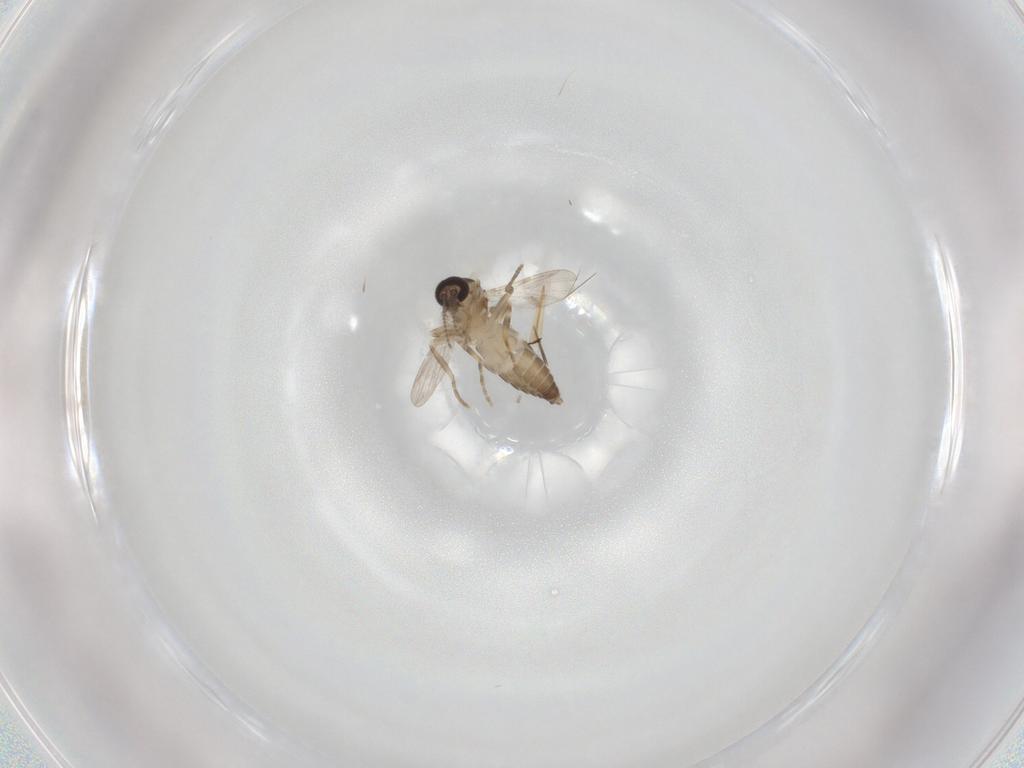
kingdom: Animalia
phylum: Arthropoda
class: Insecta
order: Diptera
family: Ceratopogonidae
